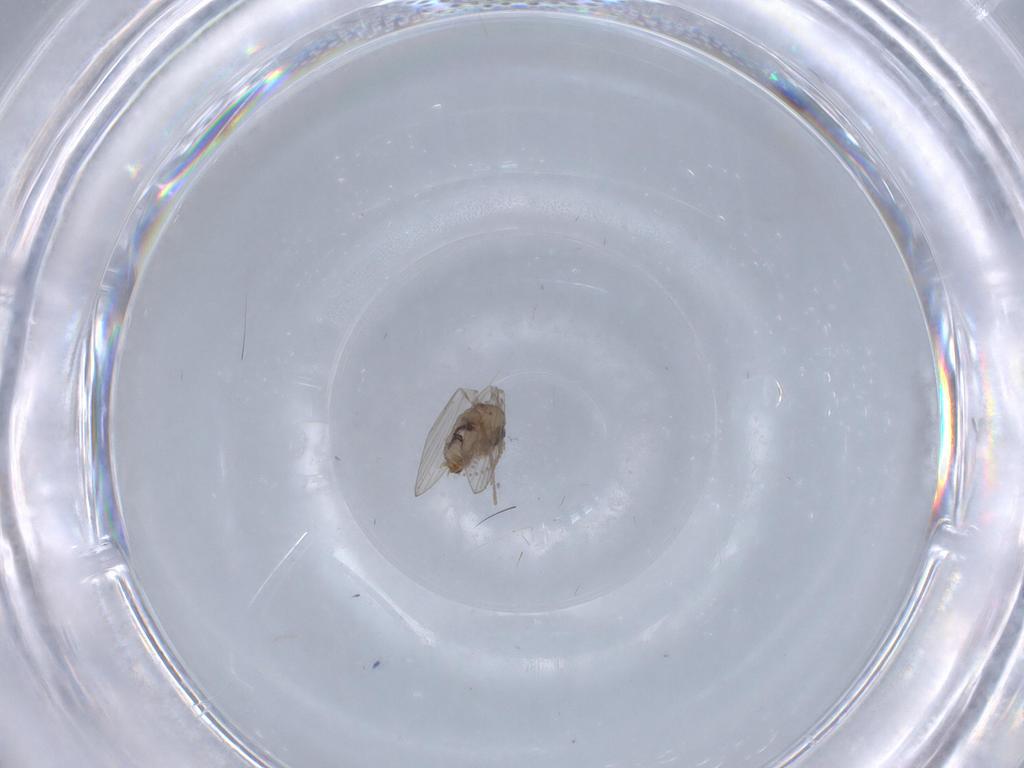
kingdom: Animalia
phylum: Arthropoda
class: Insecta
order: Diptera
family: Psychodidae
